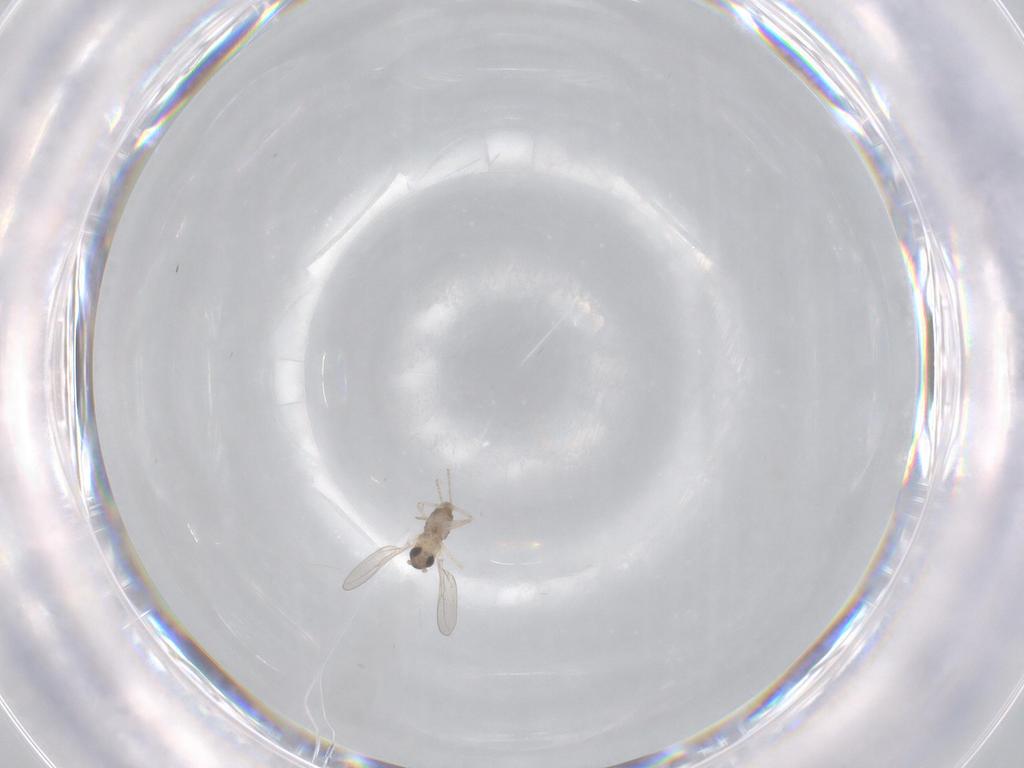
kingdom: Animalia
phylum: Arthropoda
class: Insecta
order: Diptera
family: Cecidomyiidae
